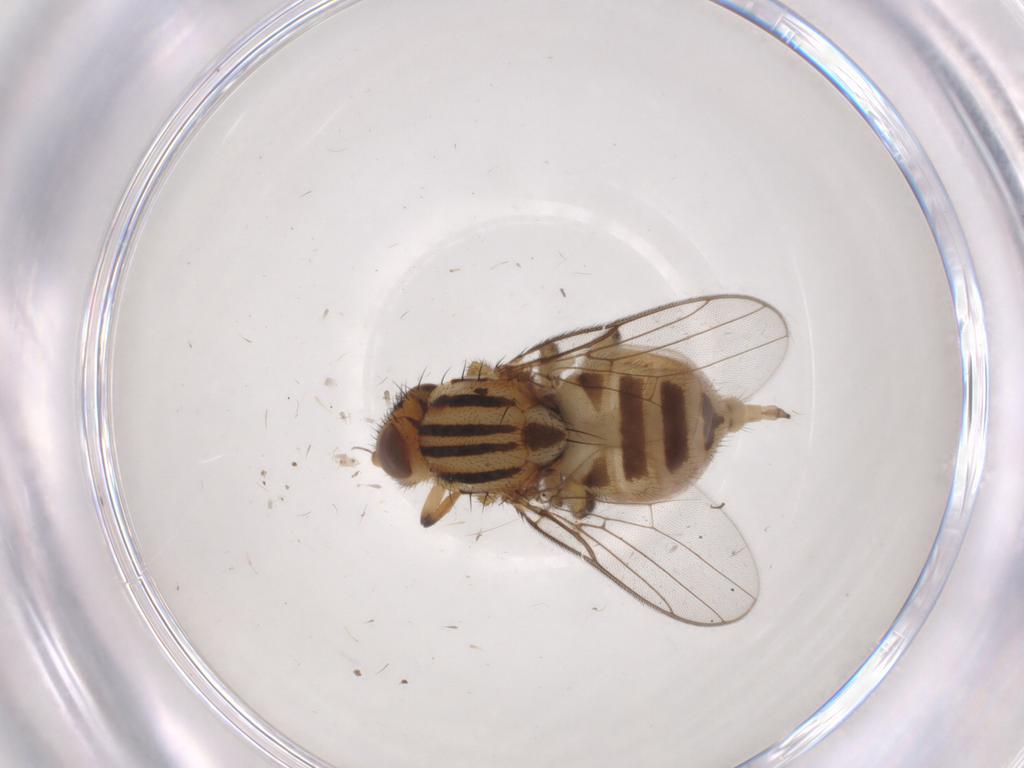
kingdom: Animalia
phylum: Arthropoda
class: Insecta
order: Diptera
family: Chloropidae
